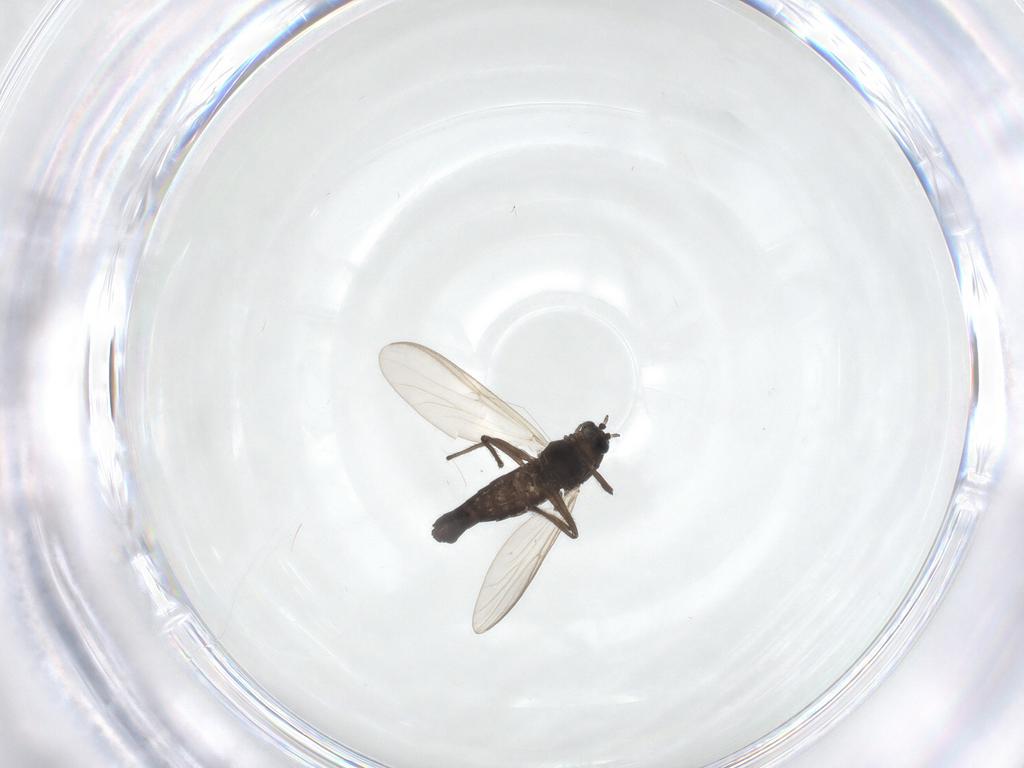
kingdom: Animalia
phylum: Arthropoda
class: Insecta
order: Diptera
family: Chironomidae
